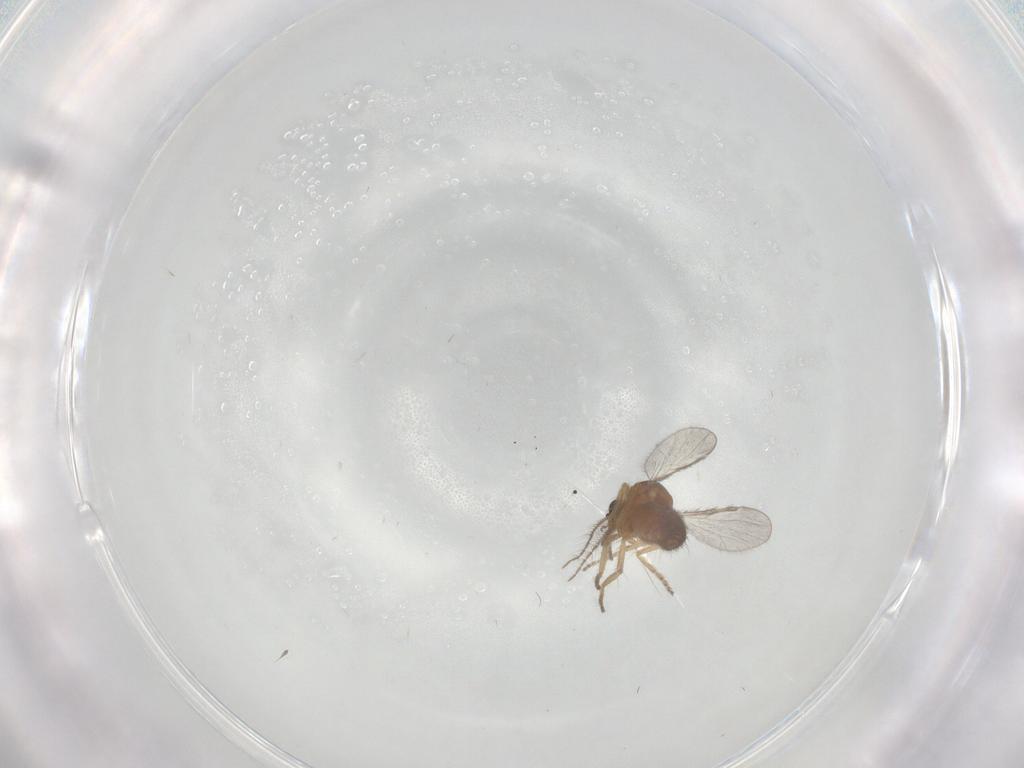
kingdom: Animalia
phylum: Arthropoda
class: Insecta
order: Diptera
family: Ceratopogonidae
